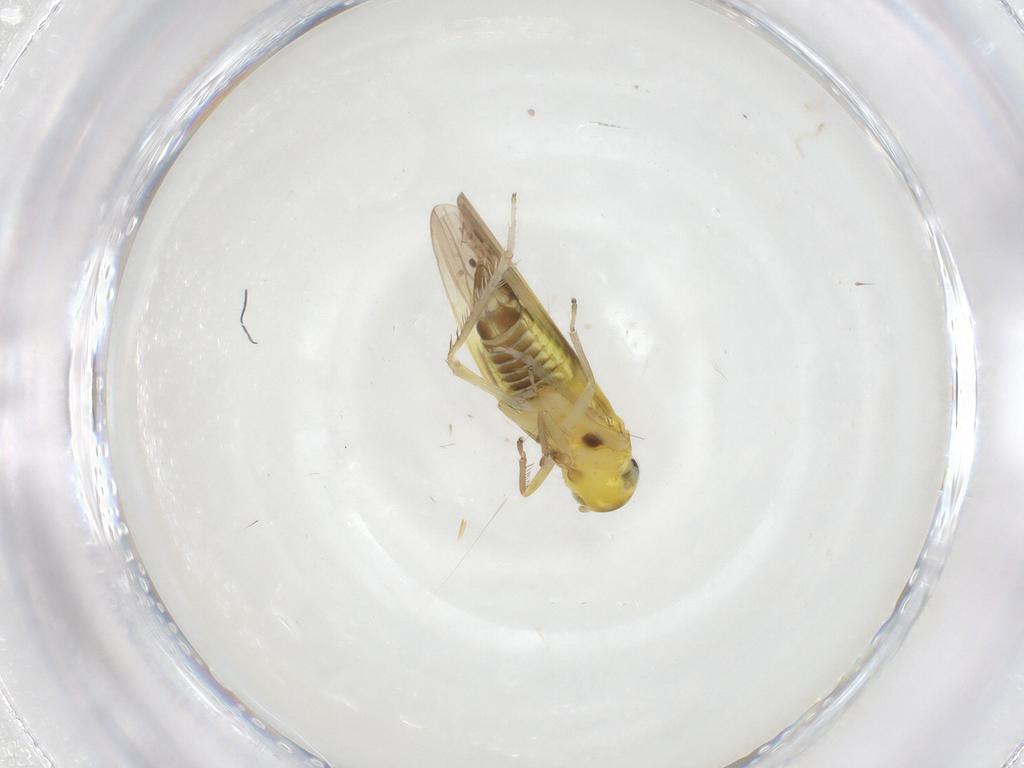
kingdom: Animalia
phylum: Arthropoda
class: Insecta
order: Hemiptera
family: Cicadellidae
